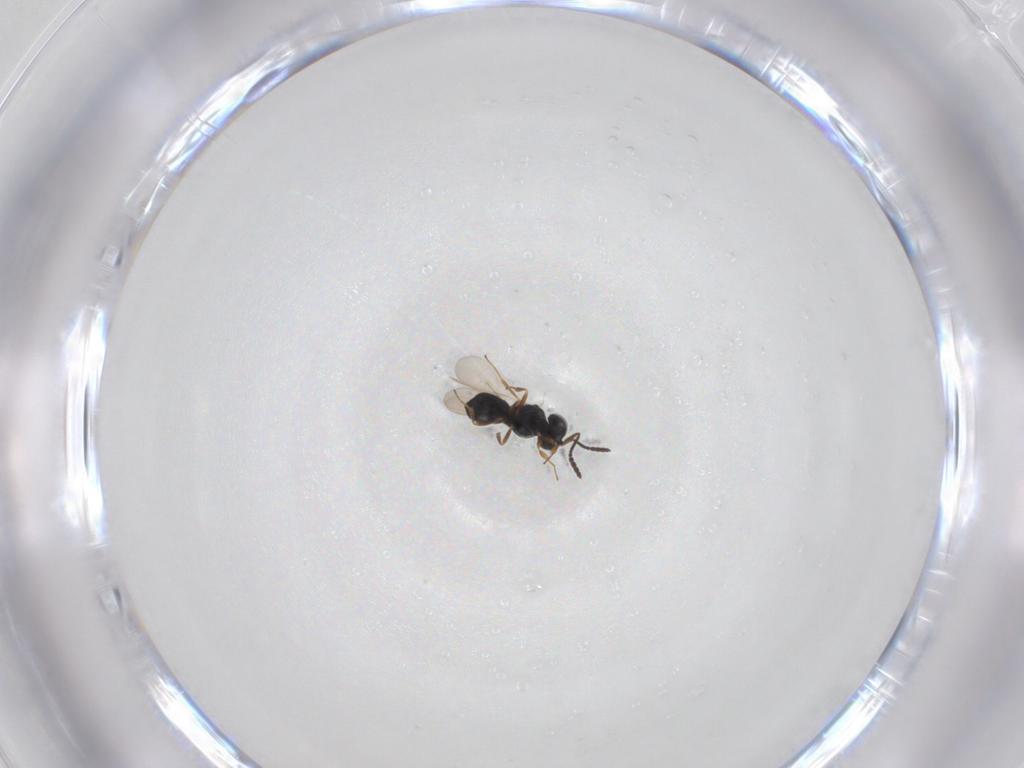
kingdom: Animalia
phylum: Arthropoda
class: Insecta
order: Hymenoptera
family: Scelionidae
